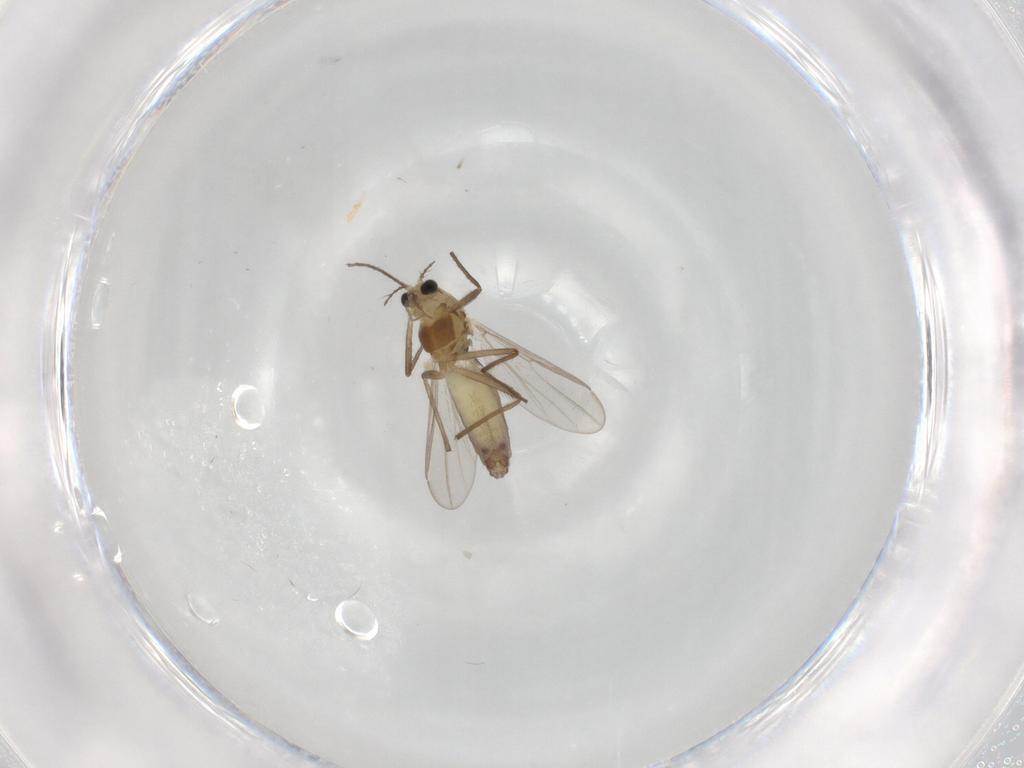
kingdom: Animalia
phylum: Arthropoda
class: Insecta
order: Diptera
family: Chironomidae
